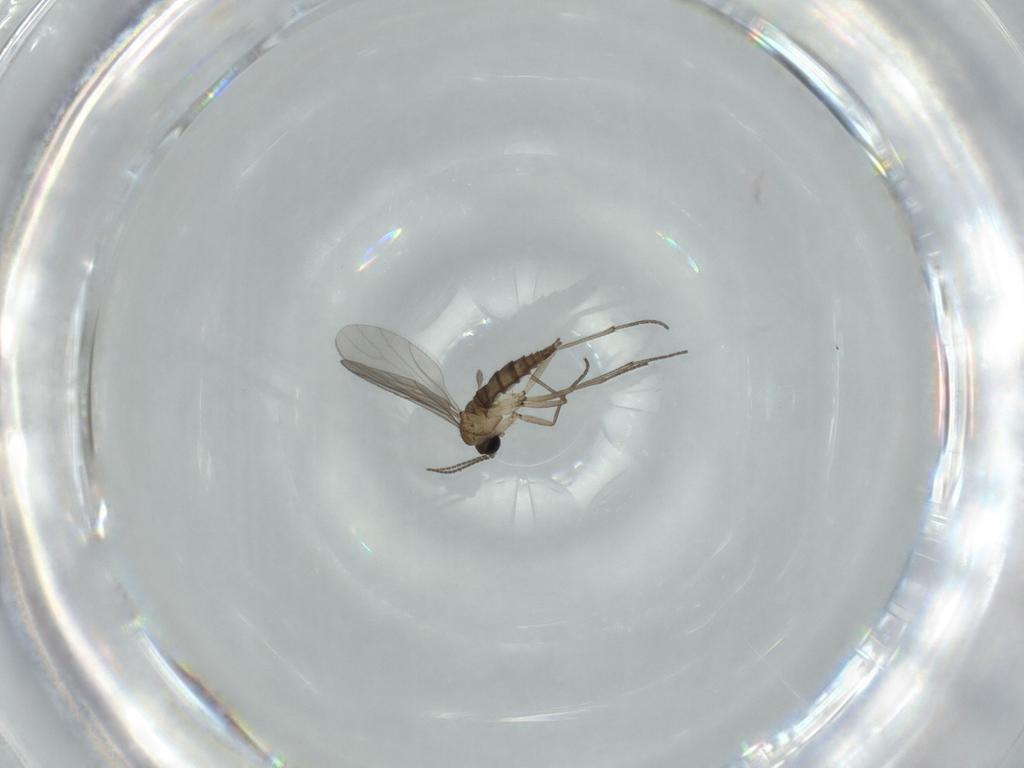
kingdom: Animalia
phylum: Arthropoda
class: Insecta
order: Diptera
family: Sciaridae
